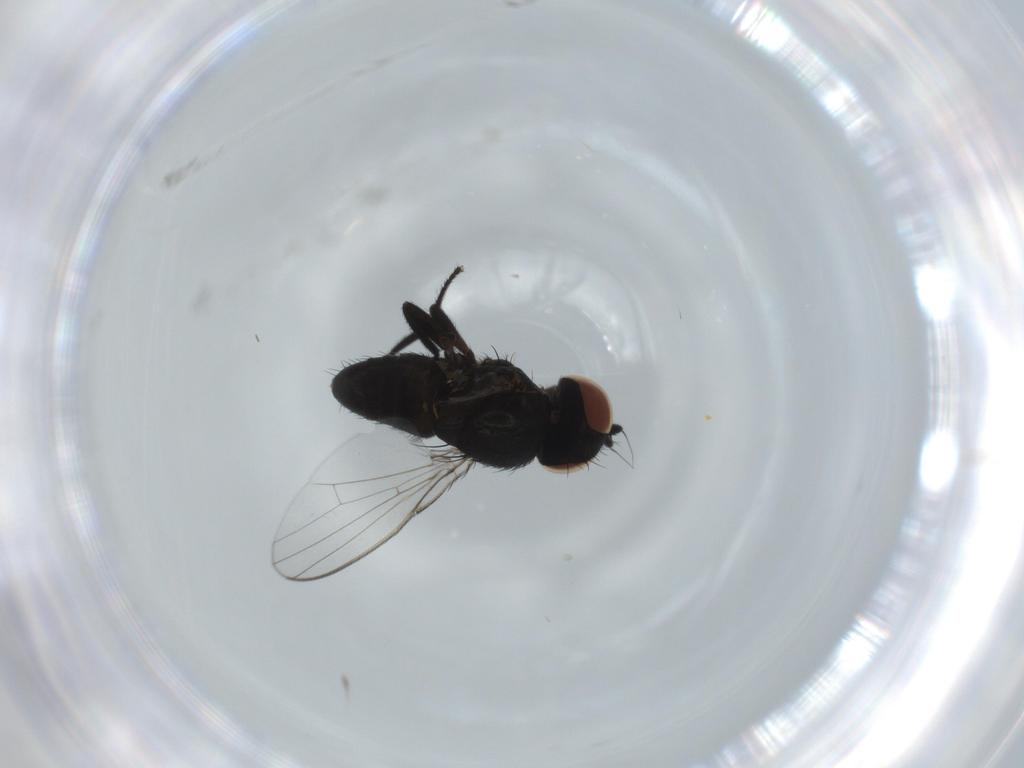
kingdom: Animalia
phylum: Arthropoda
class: Insecta
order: Diptera
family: Milichiidae
